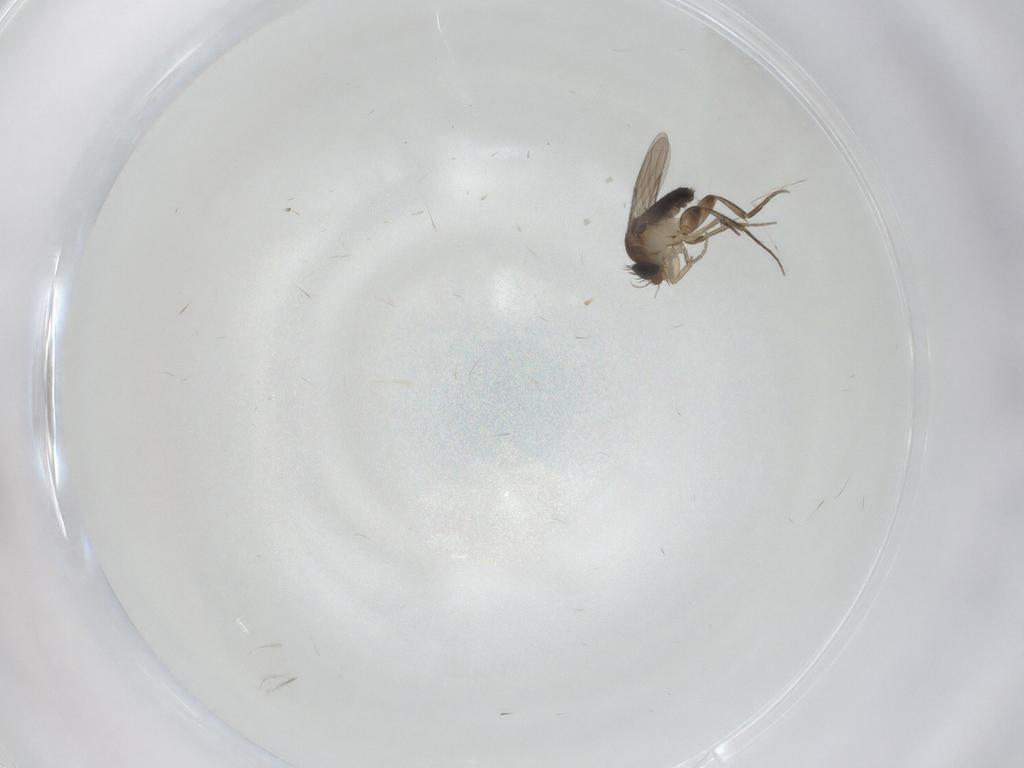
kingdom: Animalia
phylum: Arthropoda
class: Insecta
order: Diptera
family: Phoridae
